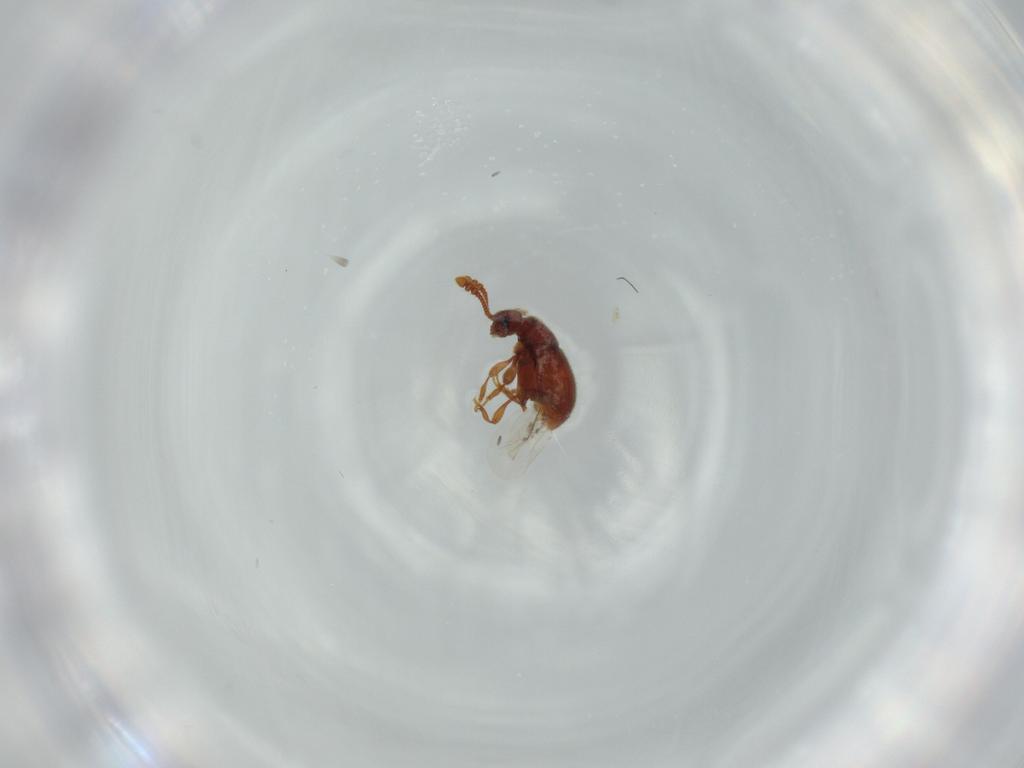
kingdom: Animalia
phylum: Arthropoda
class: Insecta
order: Coleoptera
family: Staphylinidae
